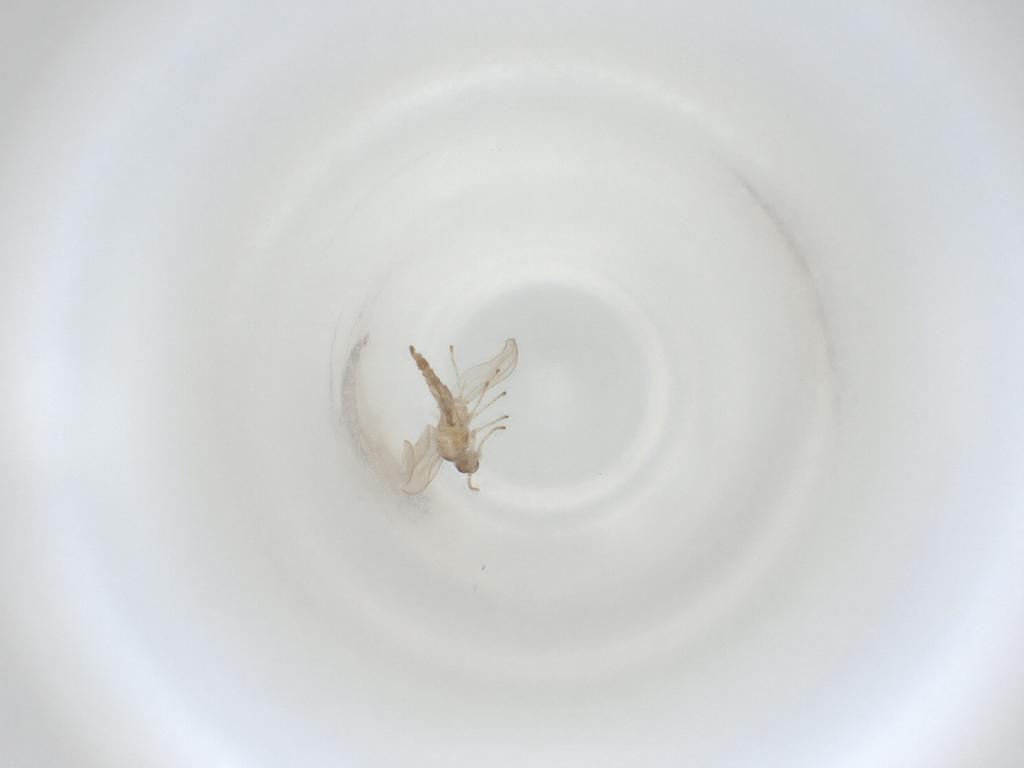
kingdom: Animalia
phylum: Arthropoda
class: Insecta
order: Diptera
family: Cecidomyiidae
